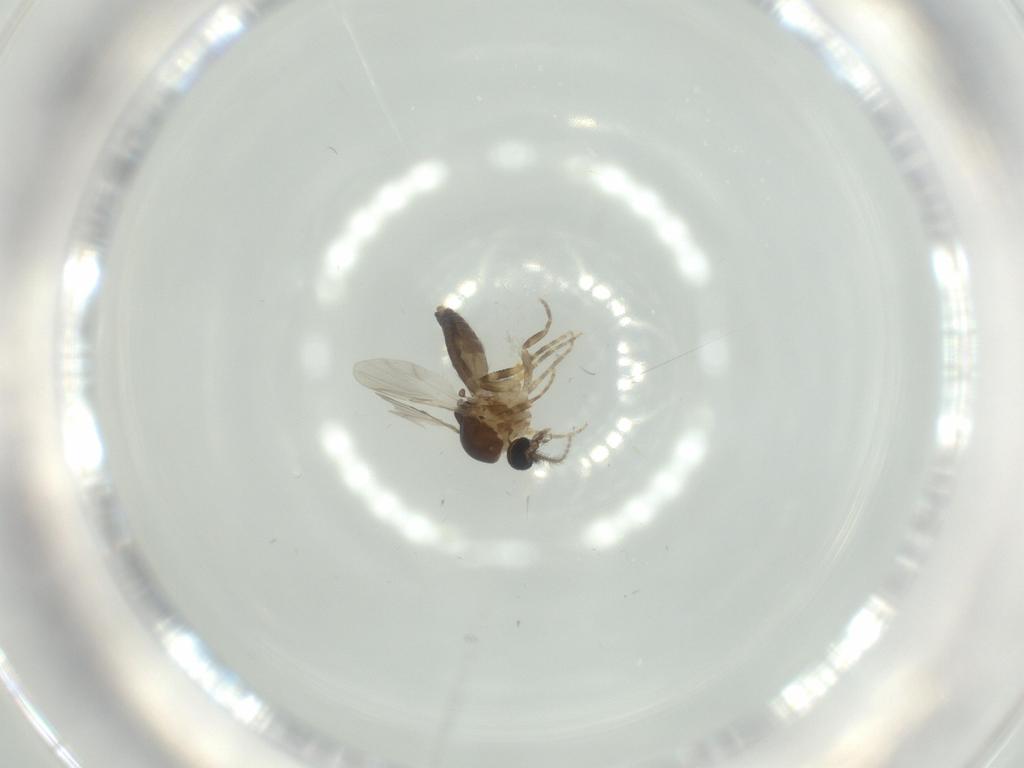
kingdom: Animalia
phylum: Arthropoda
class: Insecta
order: Diptera
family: Ceratopogonidae
